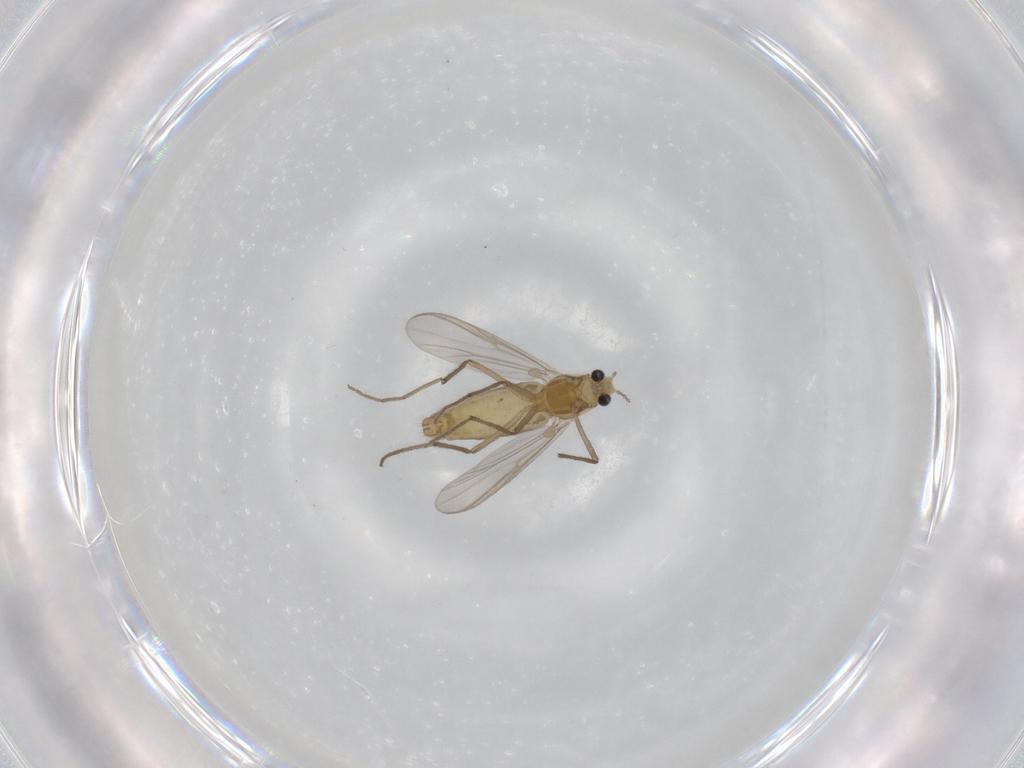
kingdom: Animalia
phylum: Arthropoda
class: Insecta
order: Diptera
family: Chironomidae
